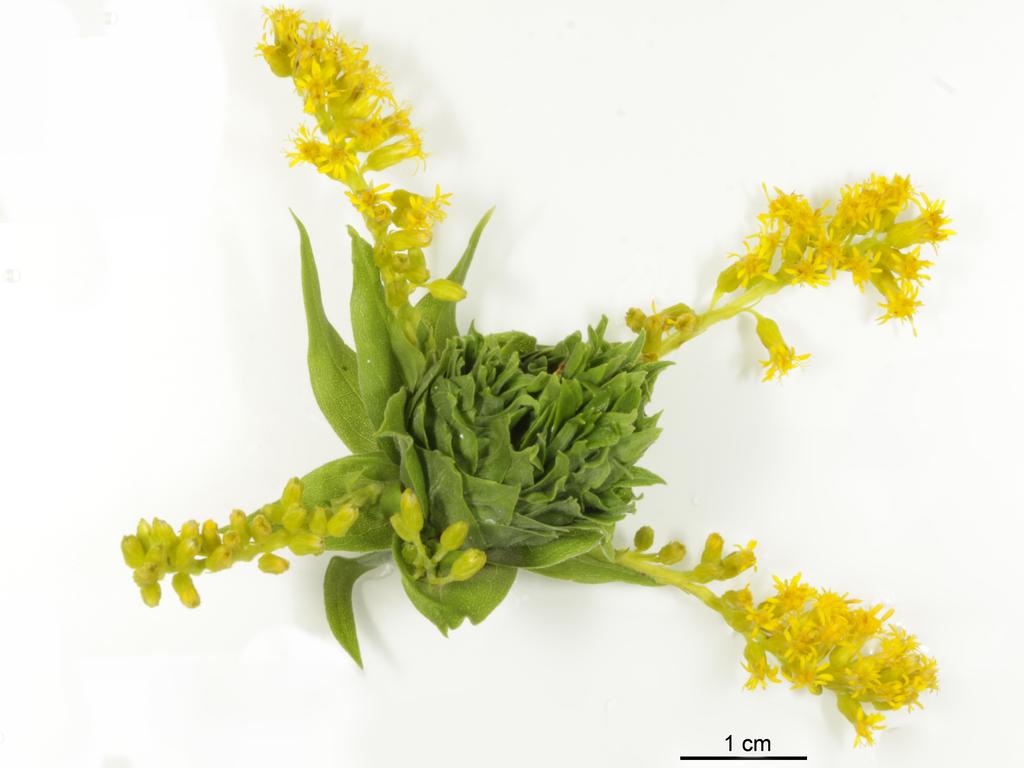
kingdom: Animalia
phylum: Arthropoda
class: Insecta
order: Hymenoptera
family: Pteromalidae
